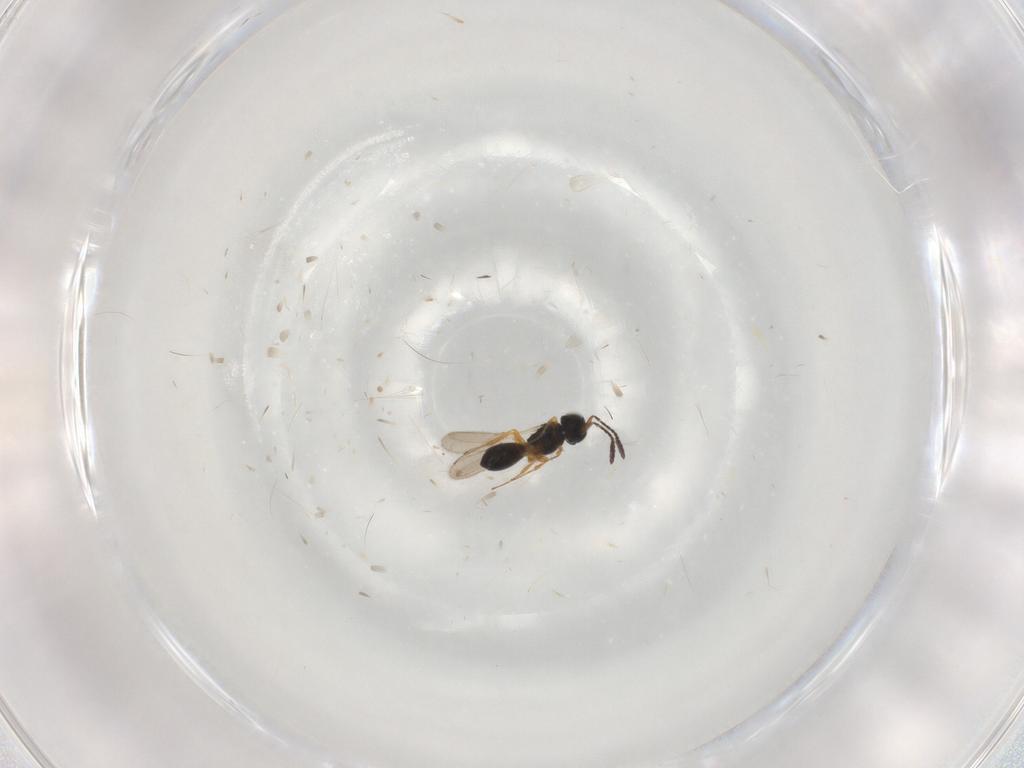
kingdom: Animalia
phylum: Arthropoda
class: Insecta
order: Hymenoptera
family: Scelionidae
